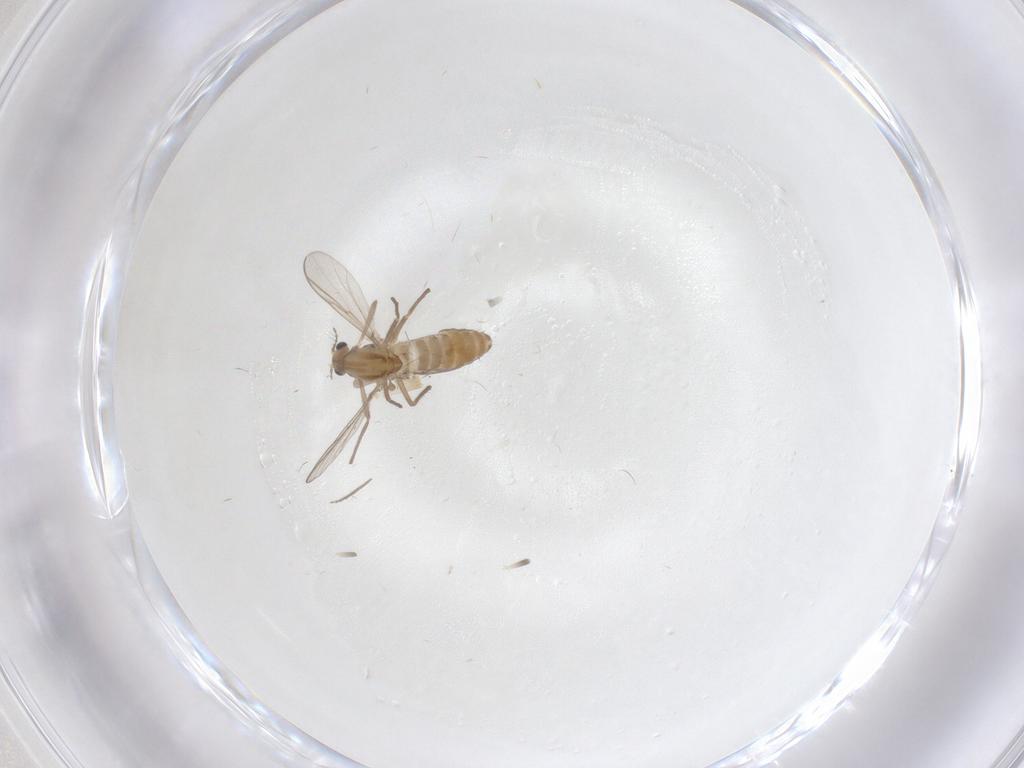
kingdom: Animalia
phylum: Arthropoda
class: Insecta
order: Diptera
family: Chironomidae
